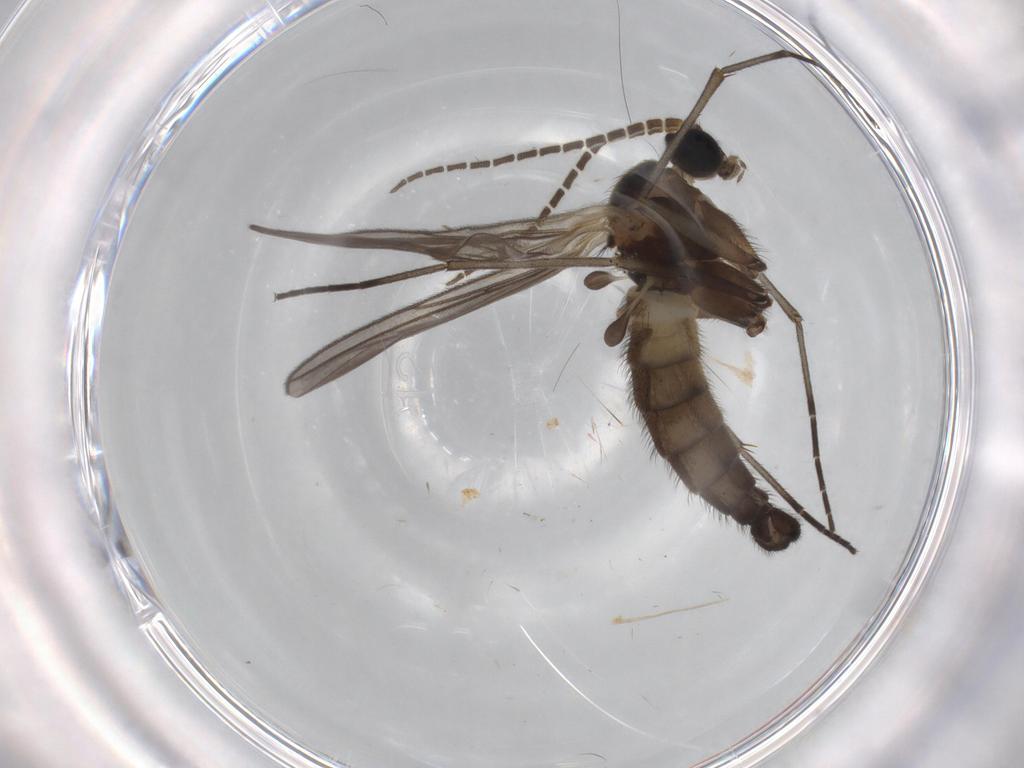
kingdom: Animalia
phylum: Arthropoda
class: Insecta
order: Diptera
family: Sciaridae
